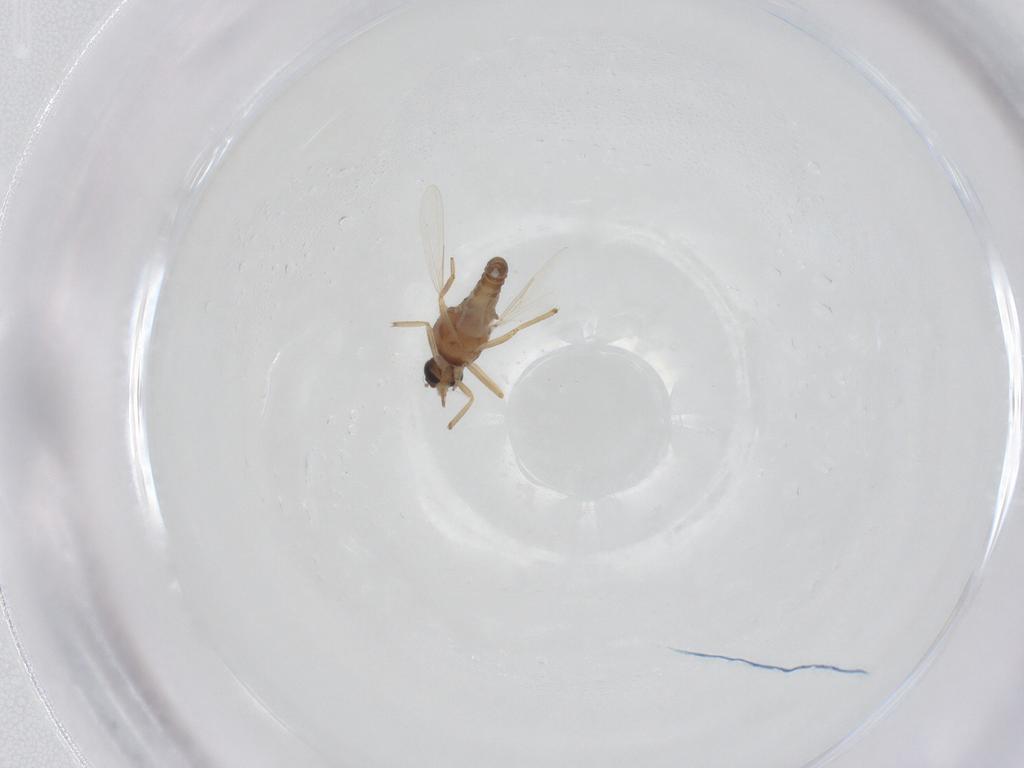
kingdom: Animalia
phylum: Arthropoda
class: Insecta
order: Diptera
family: Ceratopogonidae
